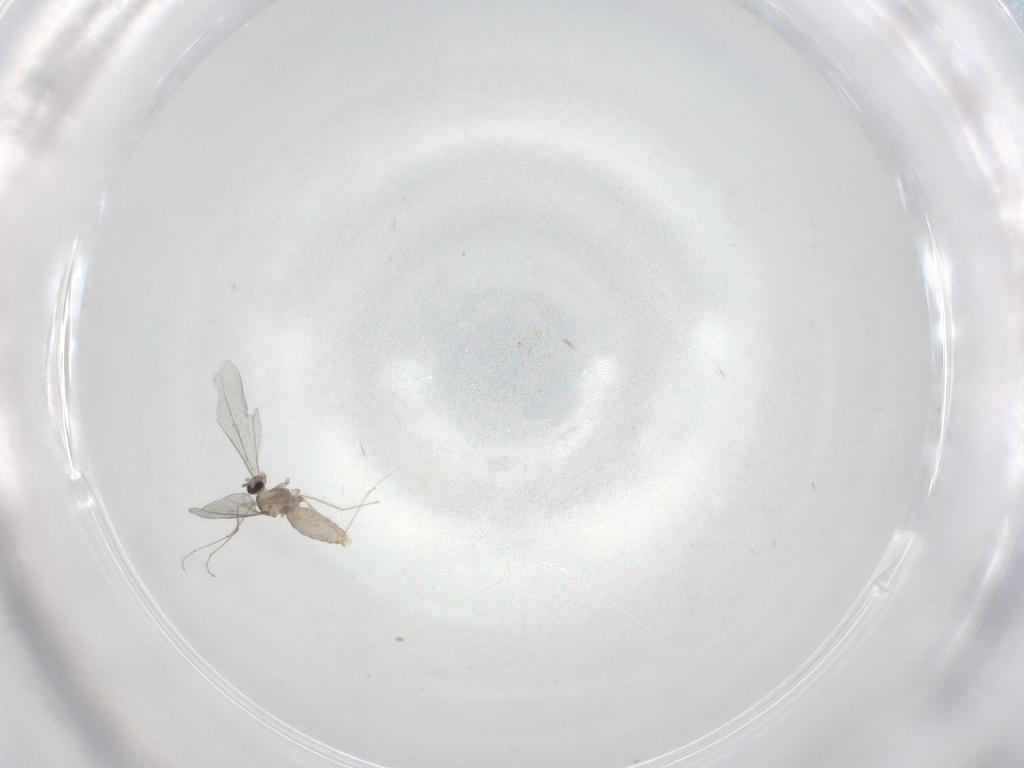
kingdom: Animalia
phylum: Arthropoda
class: Insecta
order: Diptera
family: Cecidomyiidae
